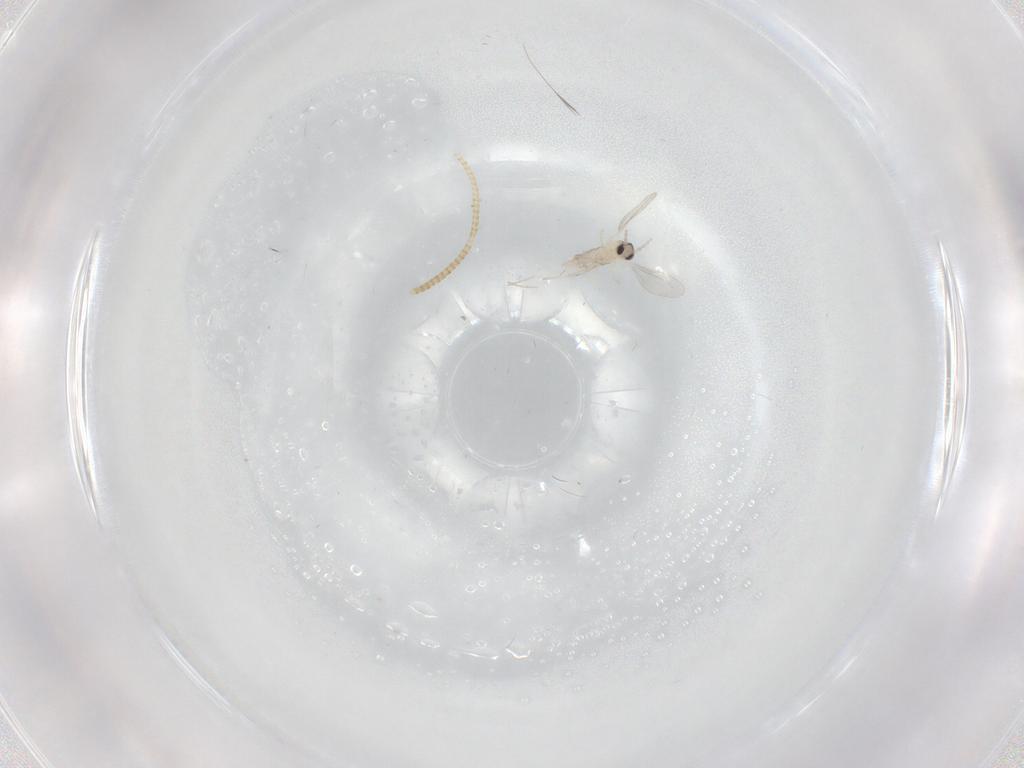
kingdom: Animalia
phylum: Arthropoda
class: Insecta
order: Diptera
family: Cecidomyiidae
